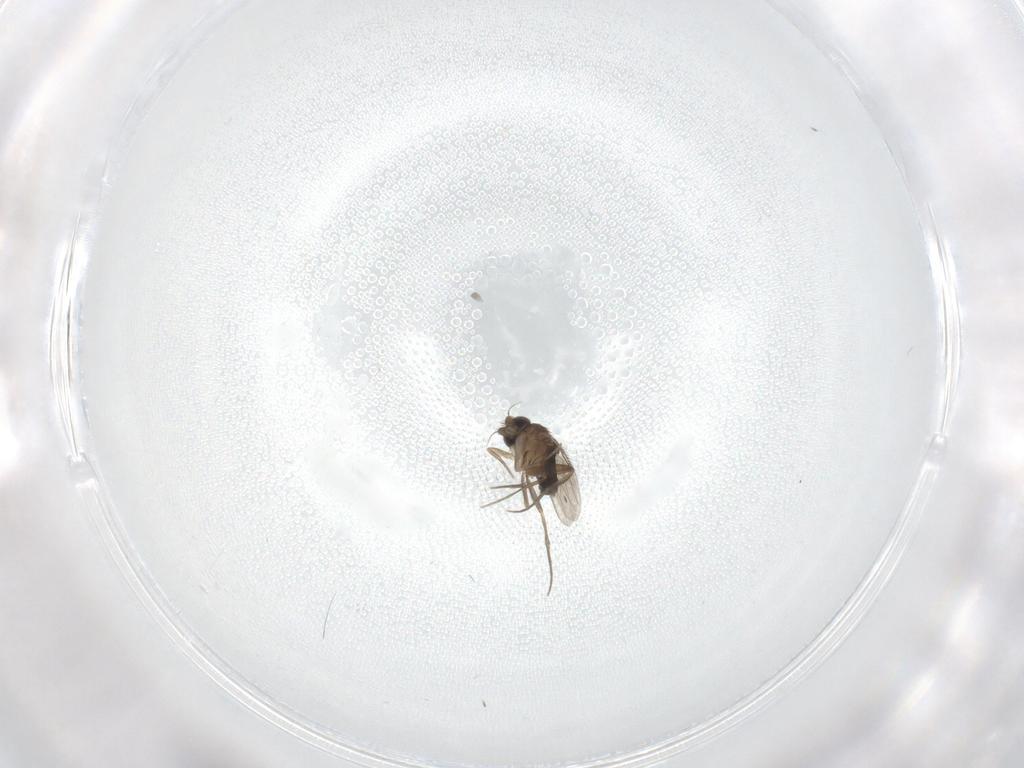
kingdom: Animalia
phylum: Arthropoda
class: Insecta
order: Diptera
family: Phoridae
